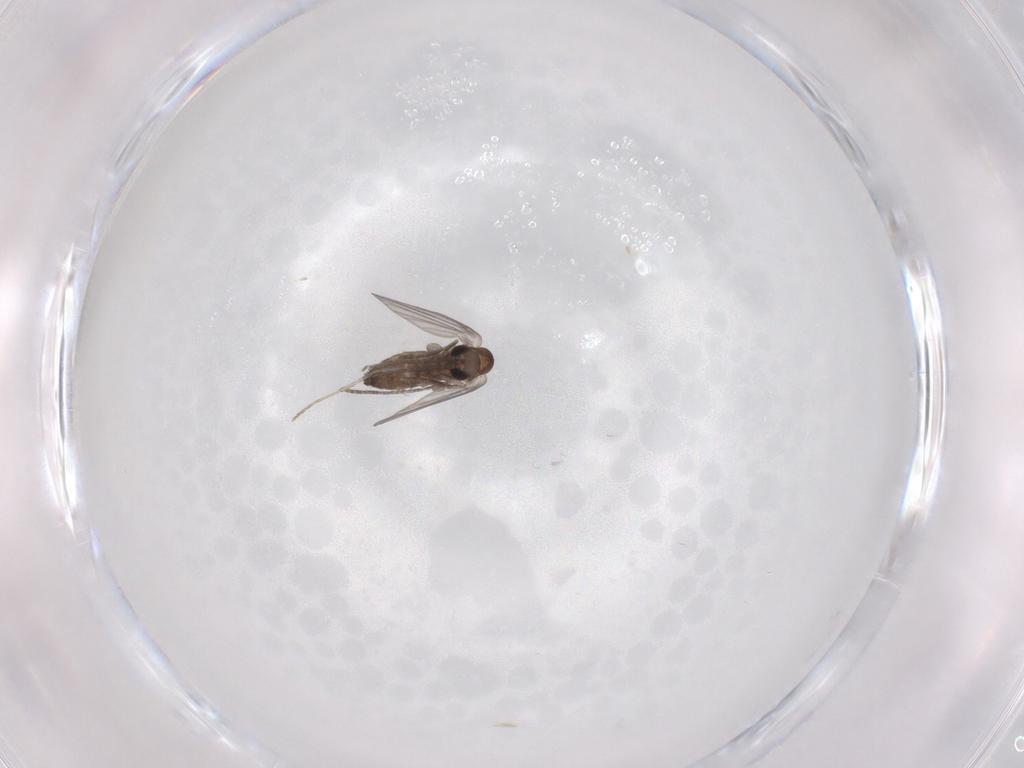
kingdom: Animalia
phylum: Arthropoda
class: Insecta
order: Diptera
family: Psychodidae
